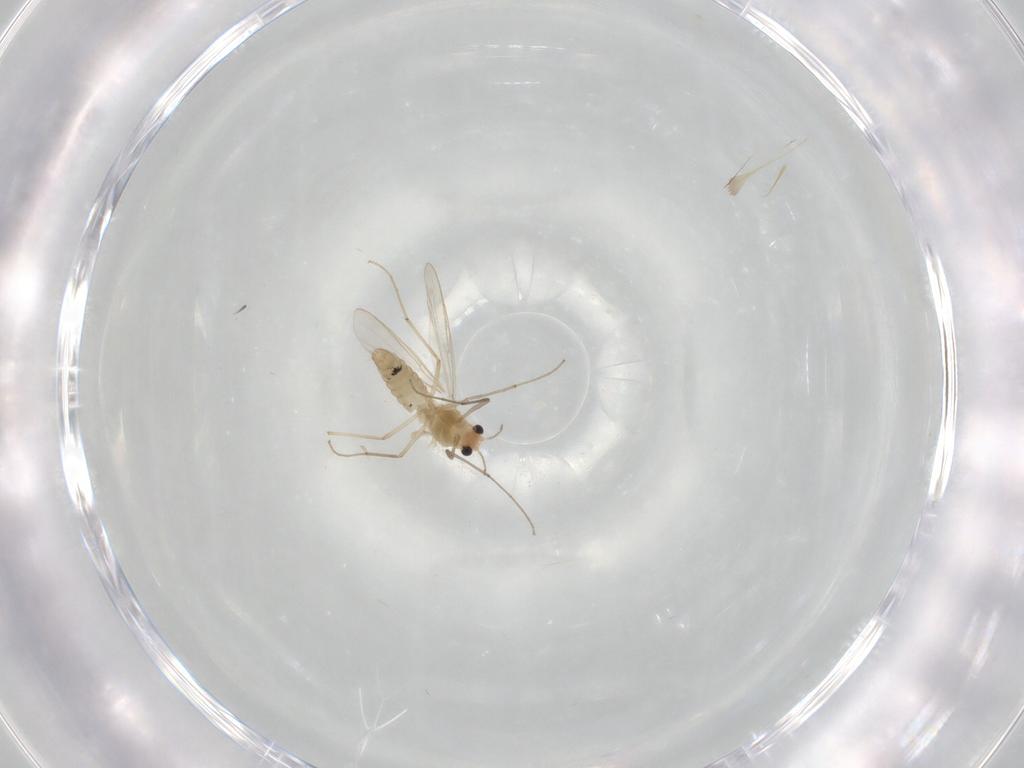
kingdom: Animalia
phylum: Arthropoda
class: Insecta
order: Diptera
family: Chironomidae
